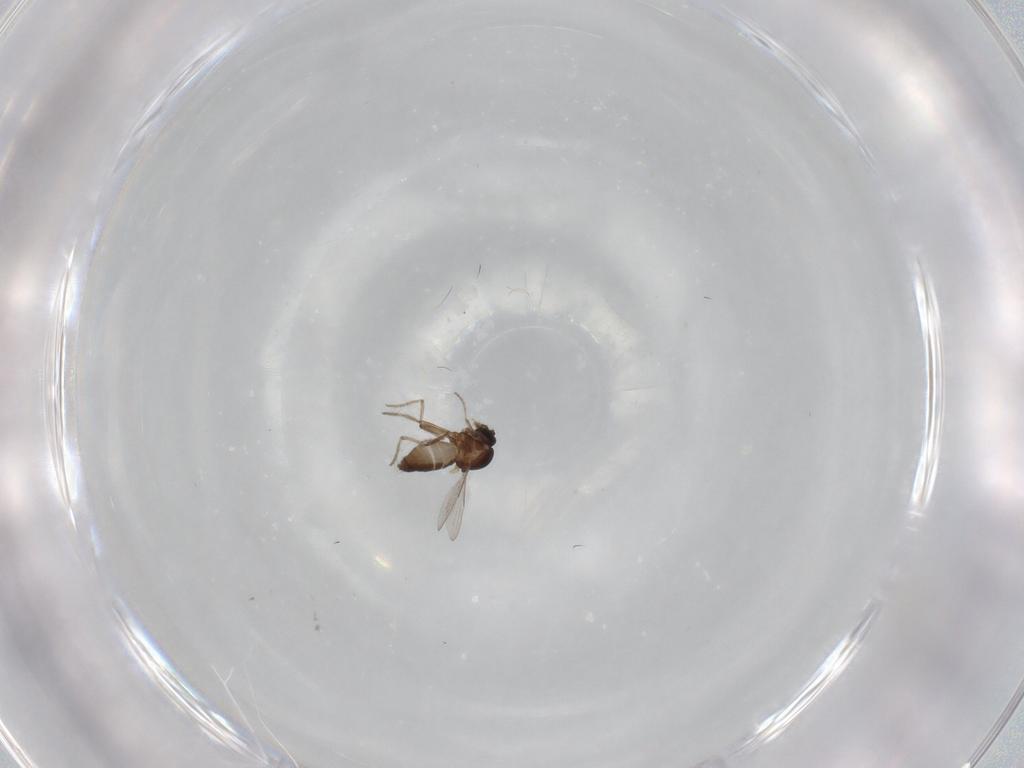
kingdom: Animalia
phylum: Arthropoda
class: Insecta
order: Diptera
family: Ceratopogonidae
